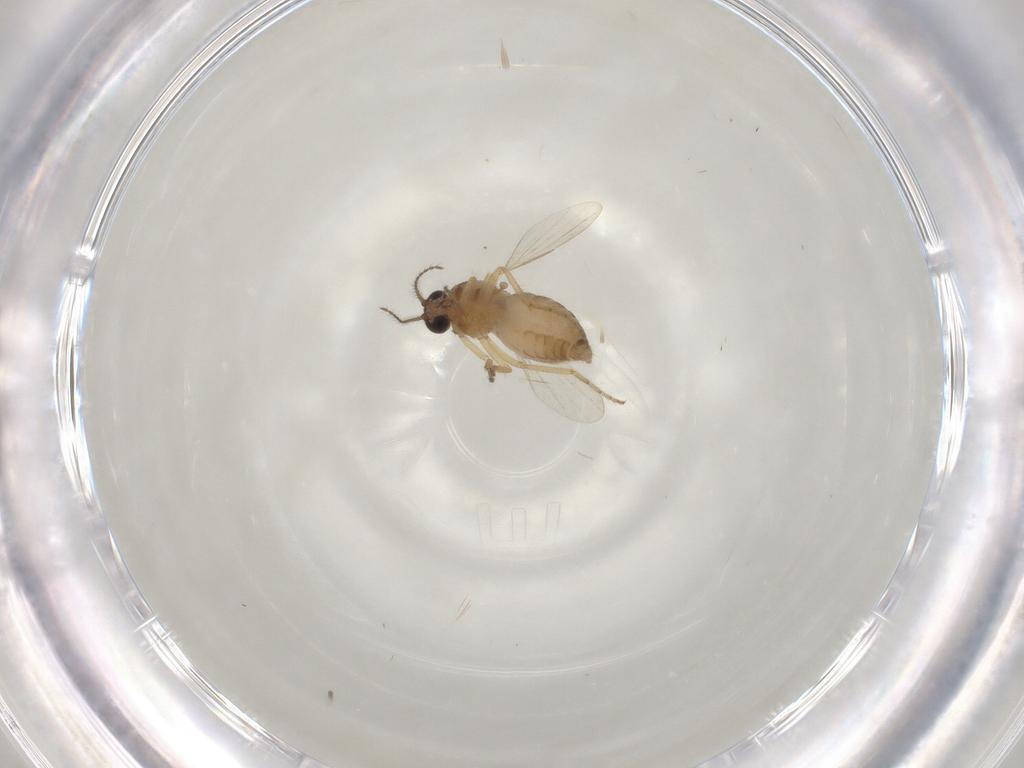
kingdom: Animalia
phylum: Arthropoda
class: Insecta
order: Diptera
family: Ceratopogonidae
